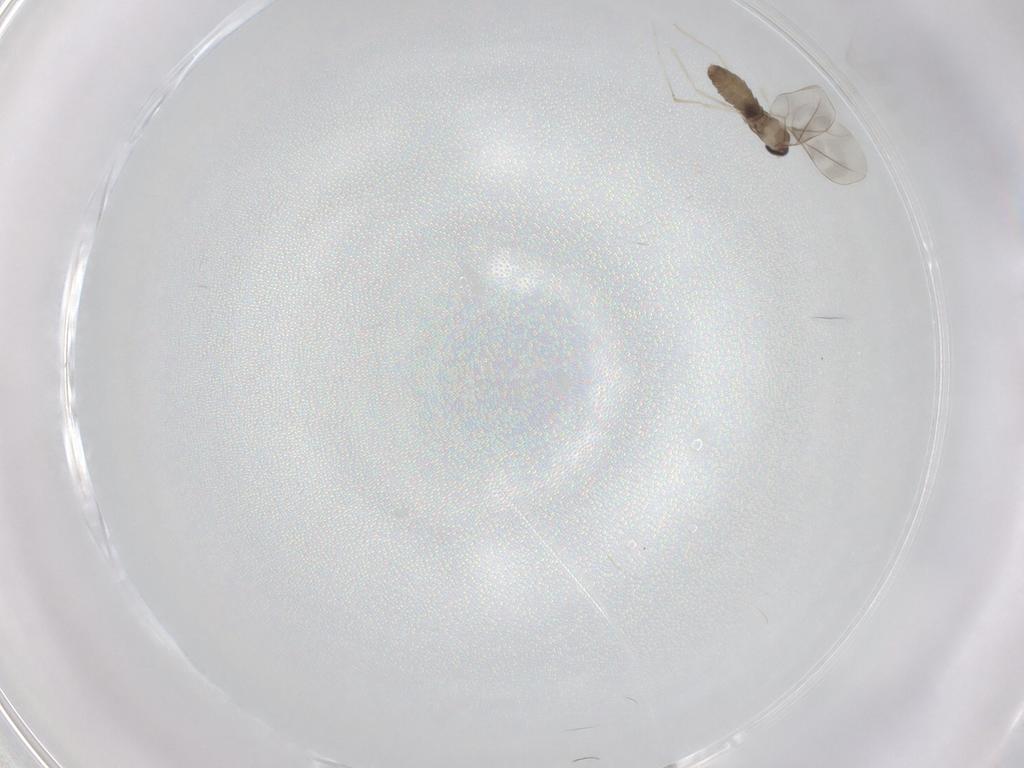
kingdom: Animalia
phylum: Arthropoda
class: Insecta
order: Diptera
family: Cecidomyiidae
